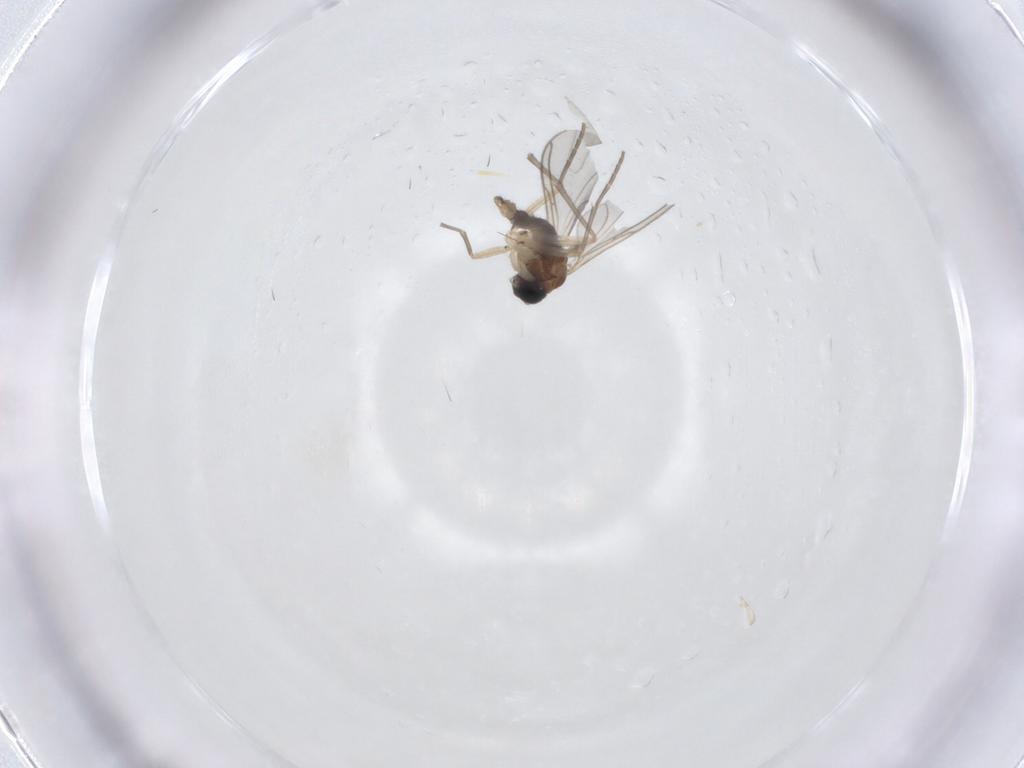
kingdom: Animalia
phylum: Arthropoda
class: Insecta
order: Diptera
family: Sciaridae
